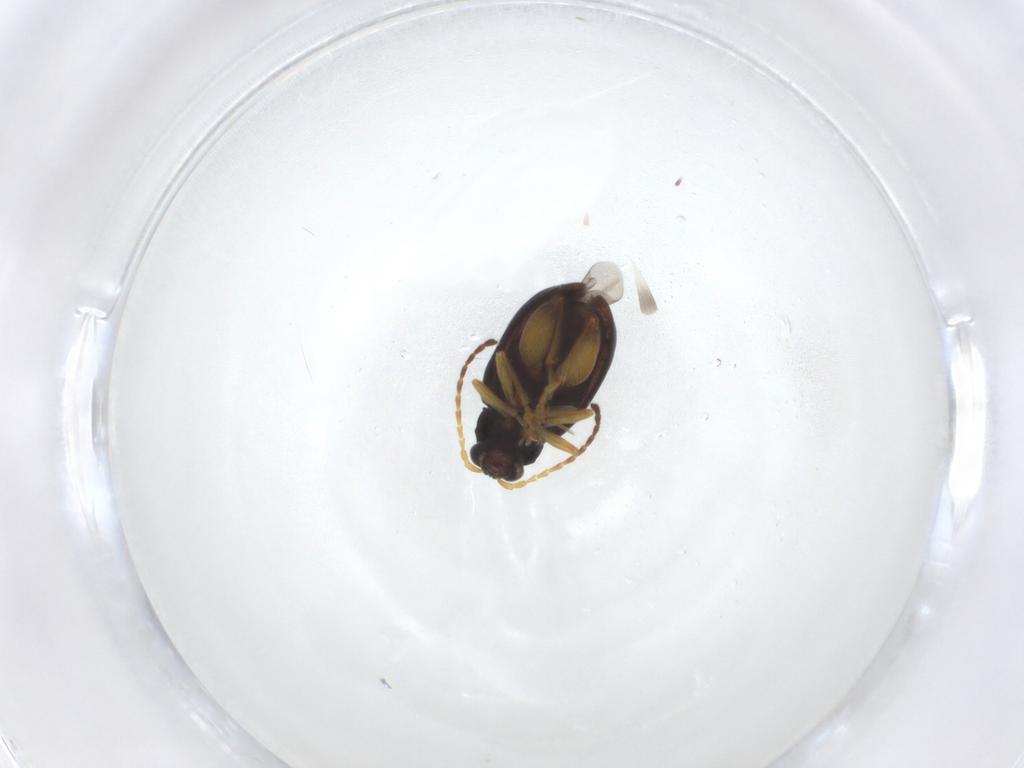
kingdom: Animalia
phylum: Arthropoda
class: Insecta
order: Coleoptera
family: Chrysomelidae
